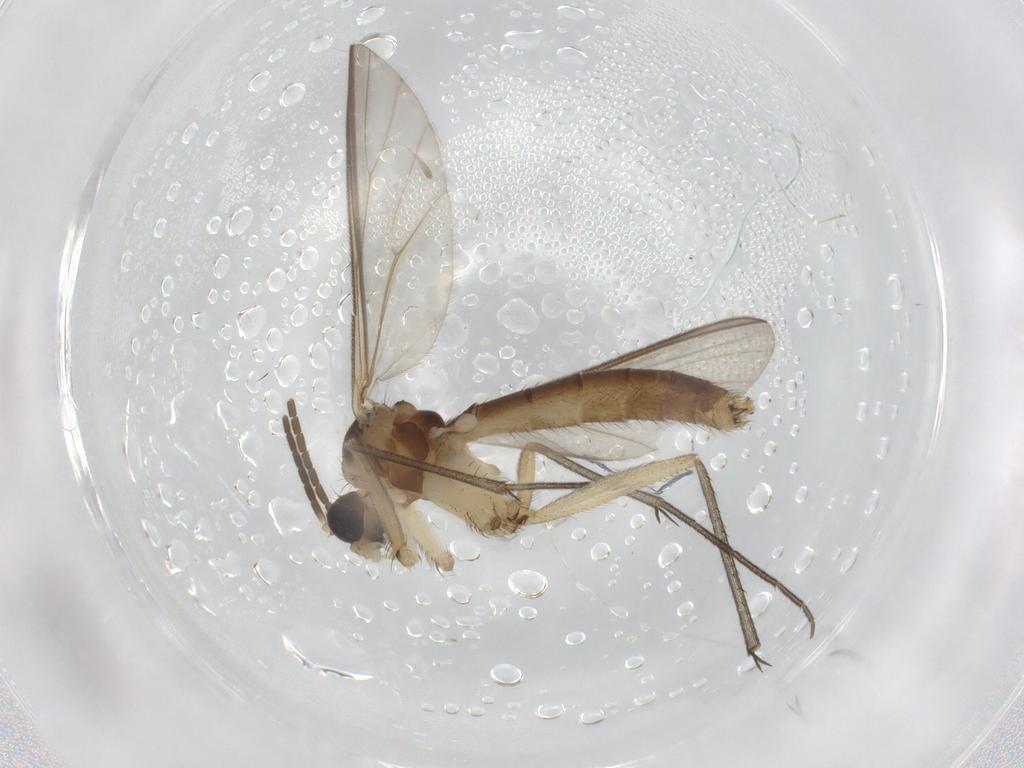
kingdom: Animalia
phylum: Arthropoda
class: Insecta
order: Diptera
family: Mycetophilidae
